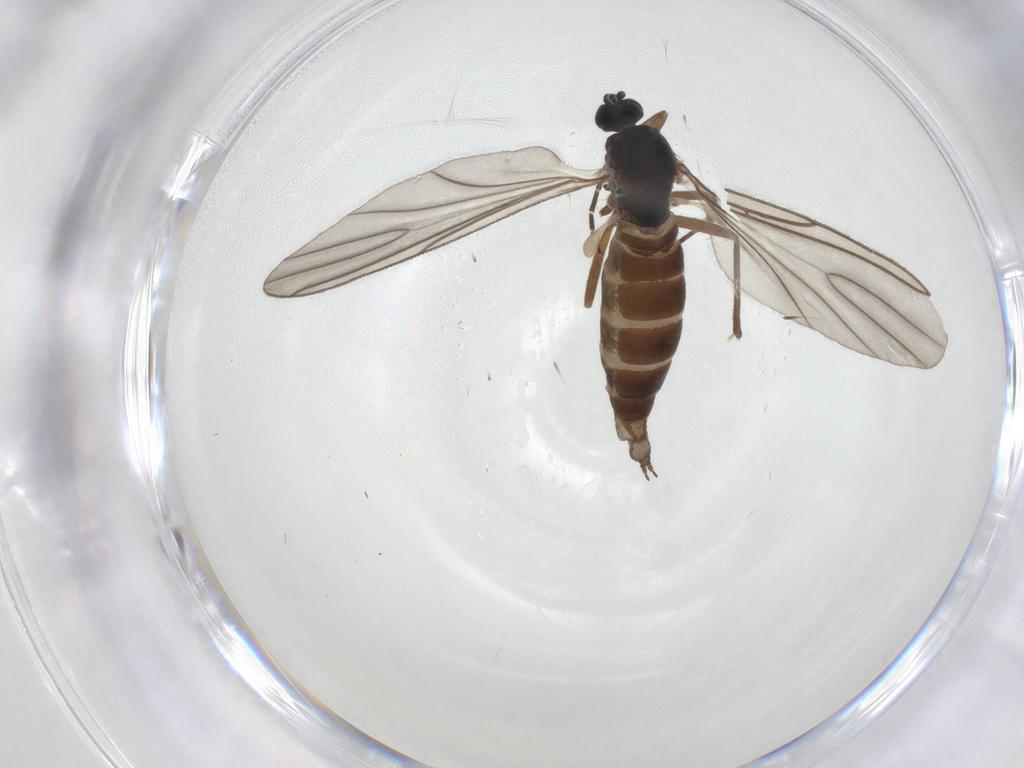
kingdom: Animalia
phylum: Arthropoda
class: Insecta
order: Diptera
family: Sciaridae
